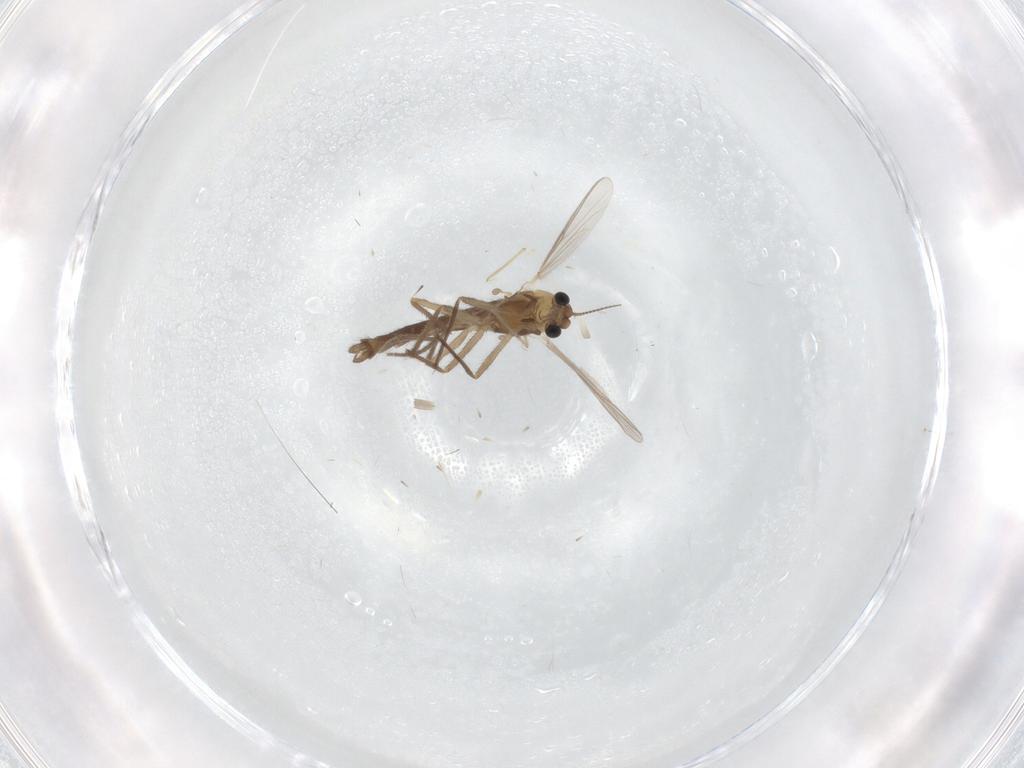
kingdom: Animalia
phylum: Arthropoda
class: Insecta
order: Diptera
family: Chironomidae
